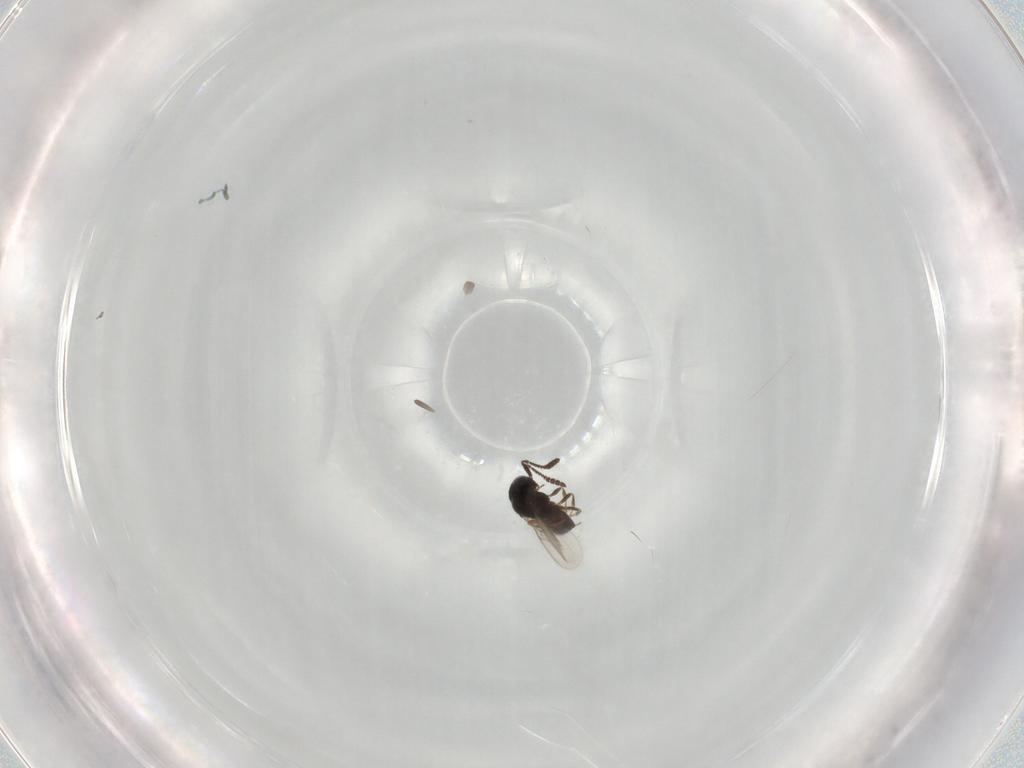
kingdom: Animalia
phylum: Arthropoda
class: Insecta
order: Hymenoptera
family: Scelionidae
